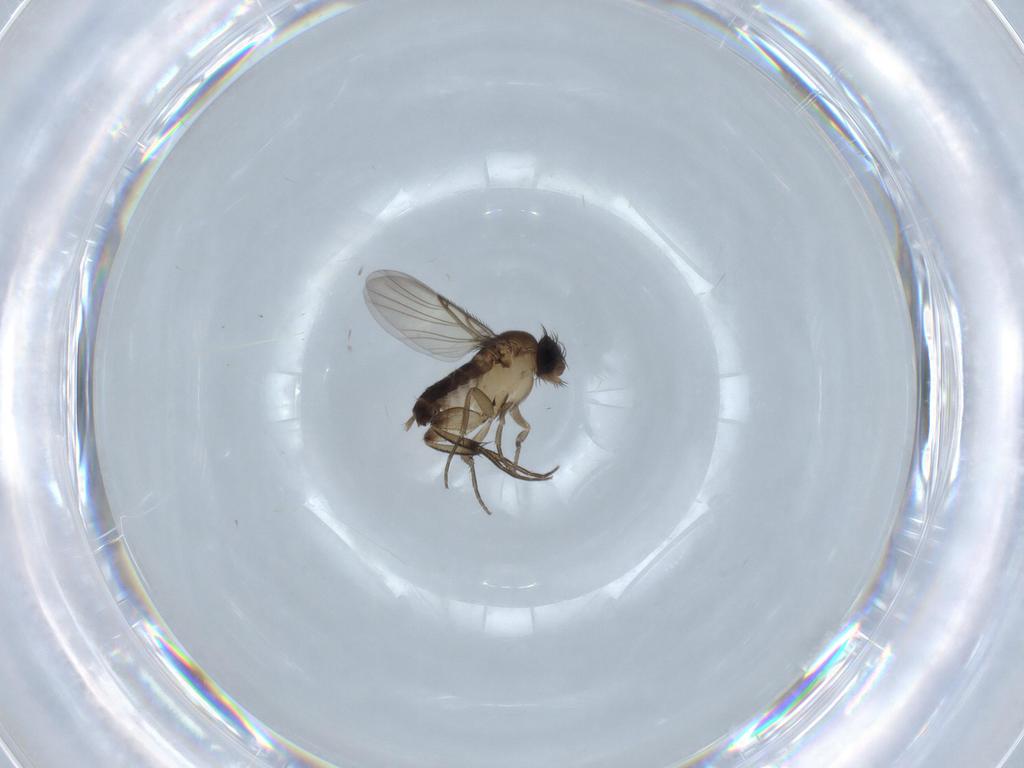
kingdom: Animalia
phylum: Arthropoda
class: Insecta
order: Diptera
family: Phoridae
